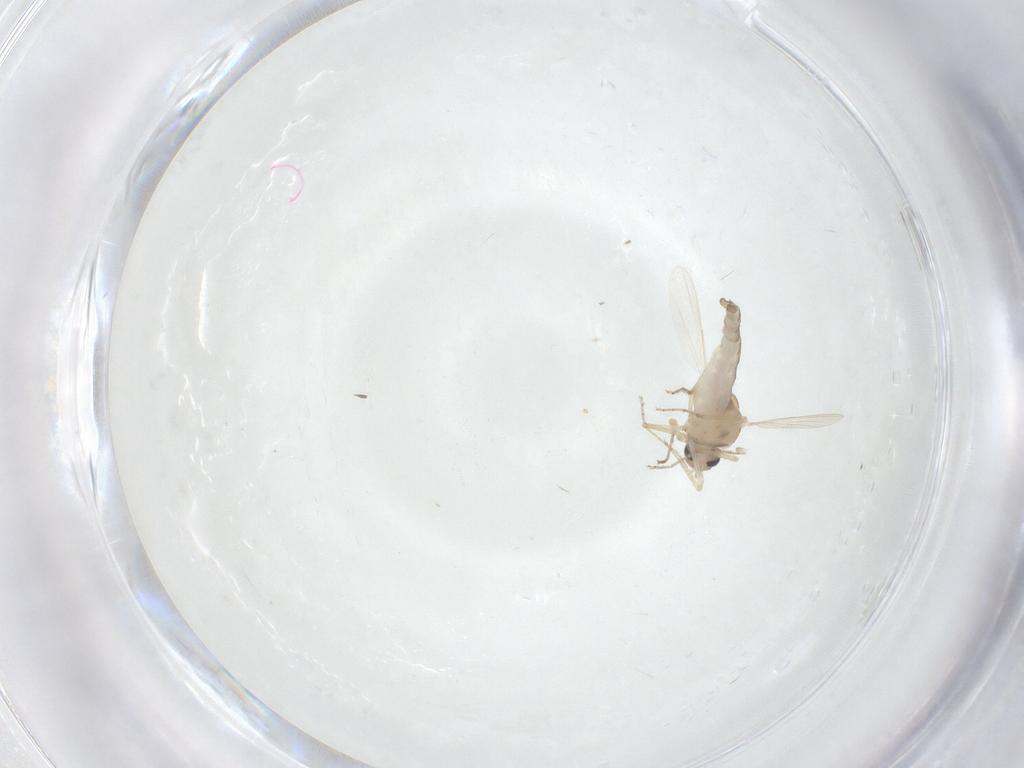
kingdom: Animalia
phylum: Arthropoda
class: Insecta
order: Diptera
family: Ceratopogonidae
